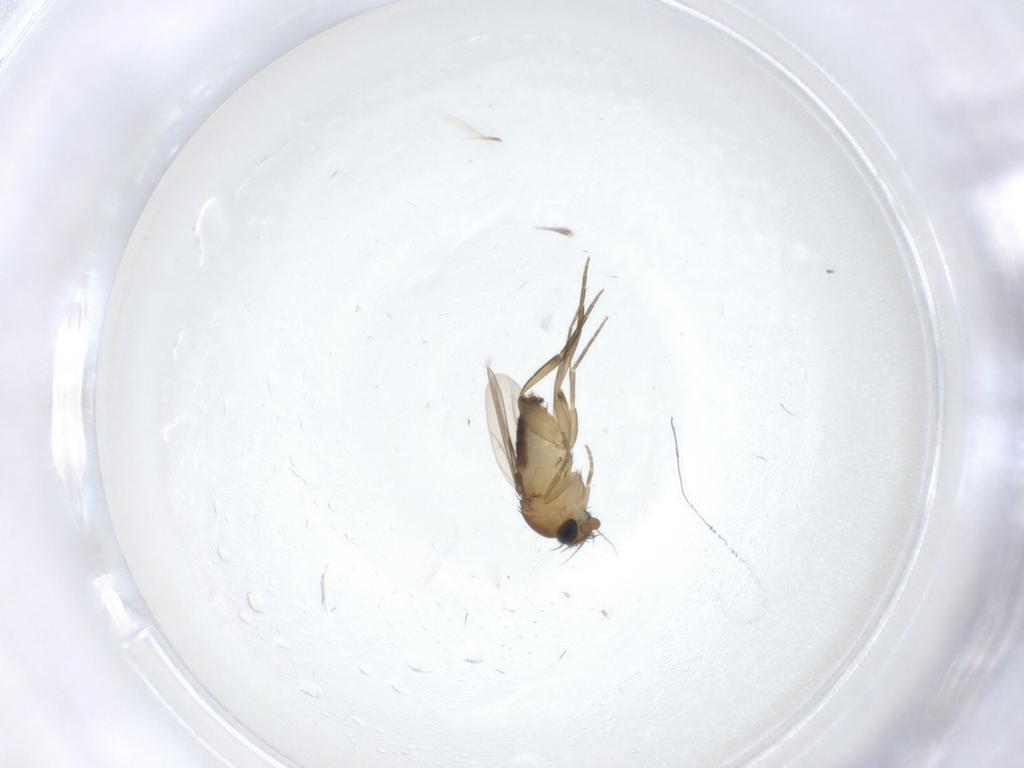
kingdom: Animalia
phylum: Arthropoda
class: Insecta
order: Diptera
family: Phoridae
